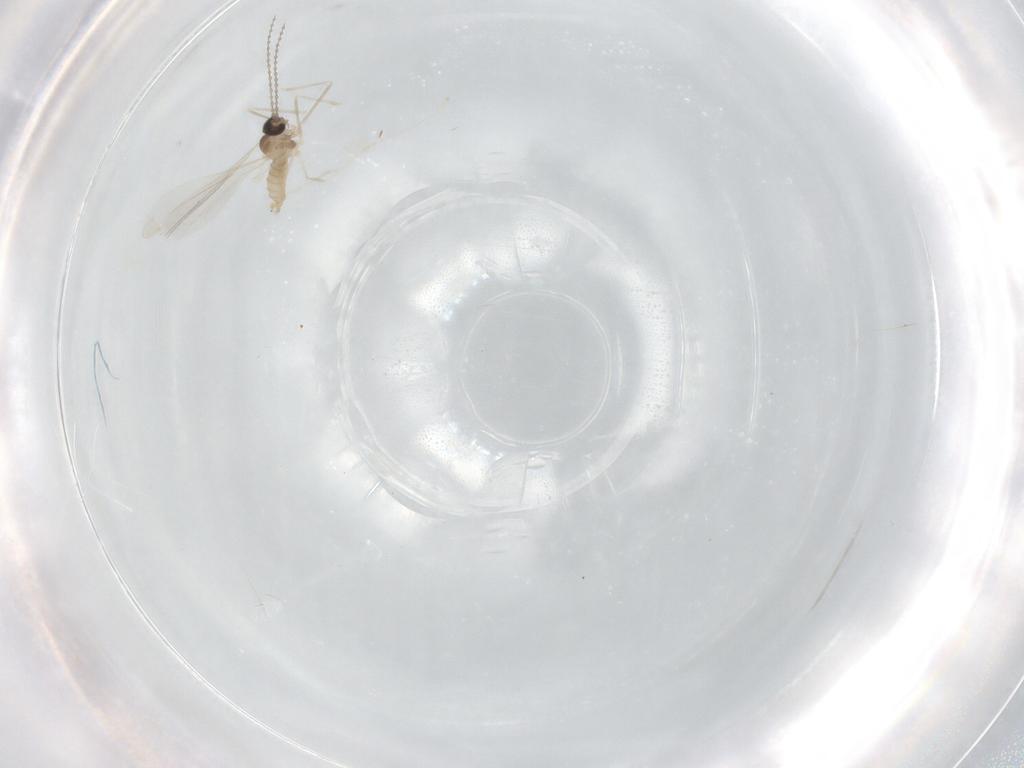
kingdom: Animalia
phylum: Arthropoda
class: Insecta
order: Diptera
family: Cecidomyiidae
